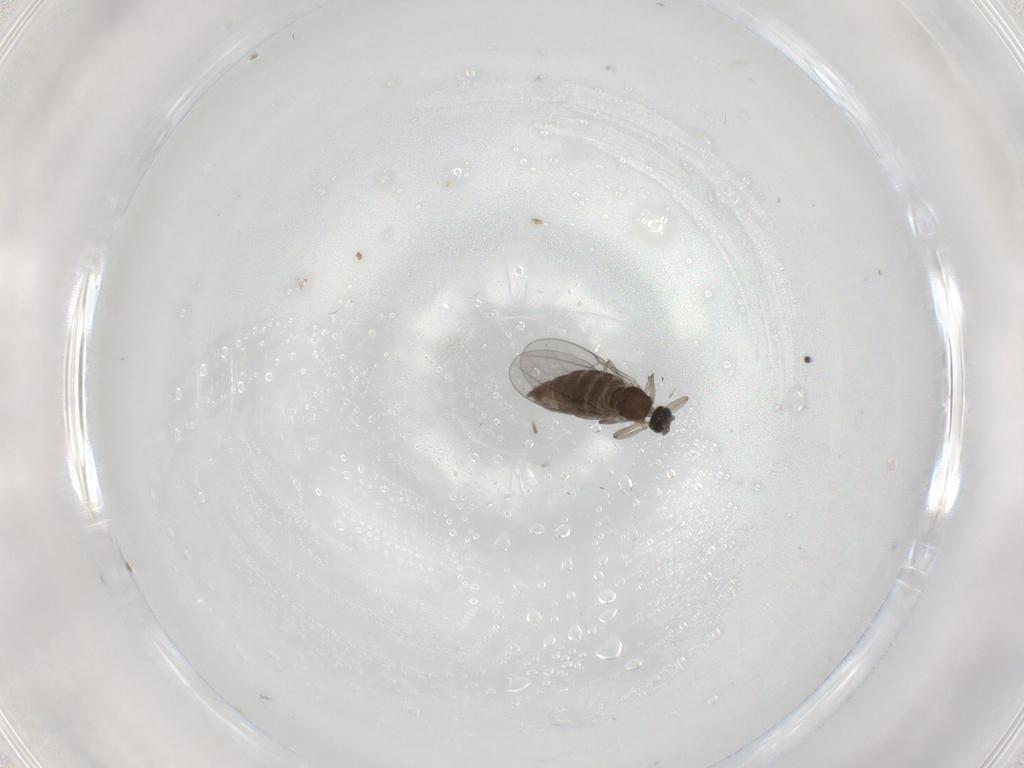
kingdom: Animalia
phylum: Arthropoda
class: Insecta
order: Diptera
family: Cecidomyiidae
